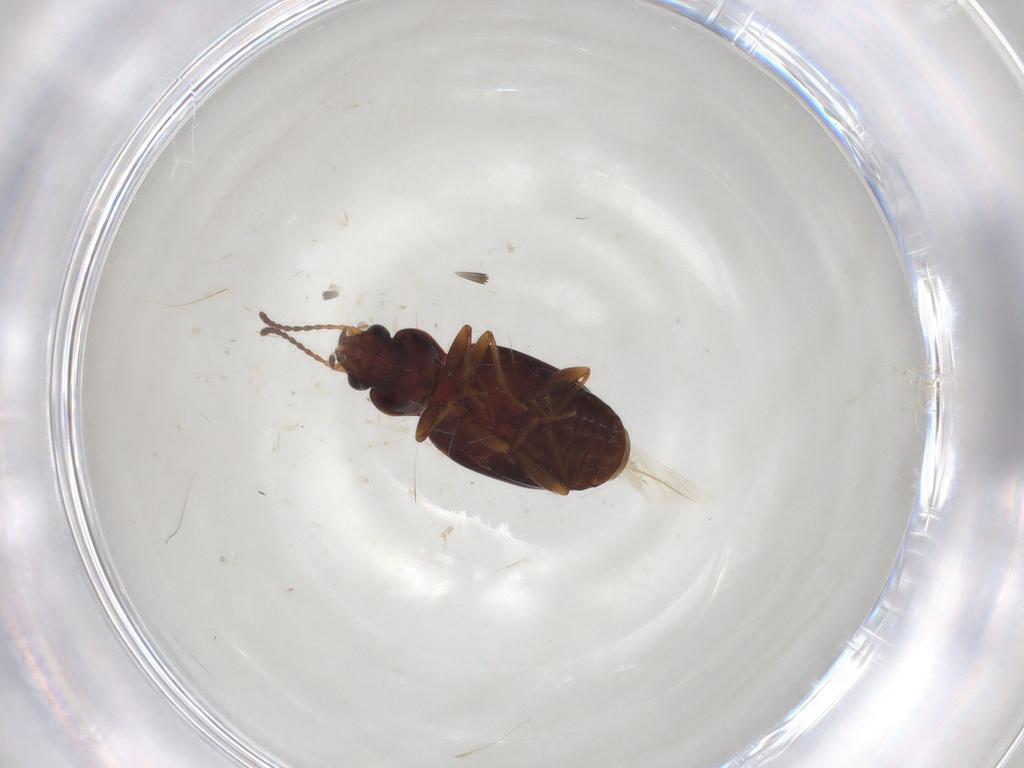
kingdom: Animalia
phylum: Arthropoda
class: Insecta
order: Coleoptera
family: Carabidae
